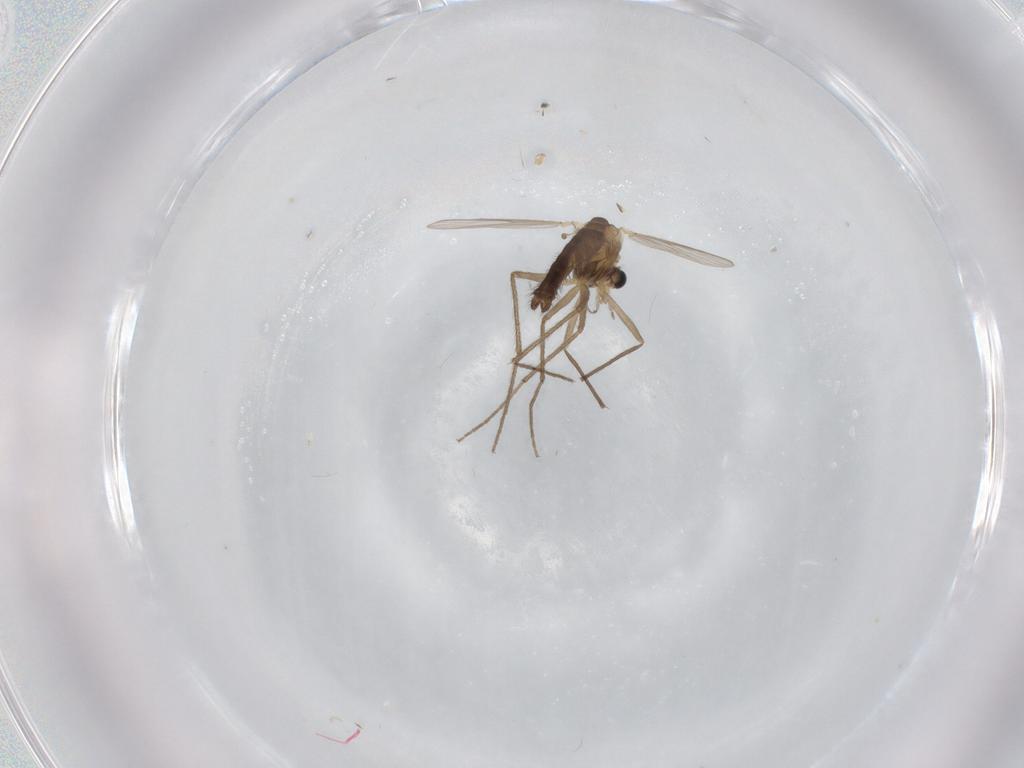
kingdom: Animalia
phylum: Arthropoda
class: Insecta
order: Diptera
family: Chironomidae
